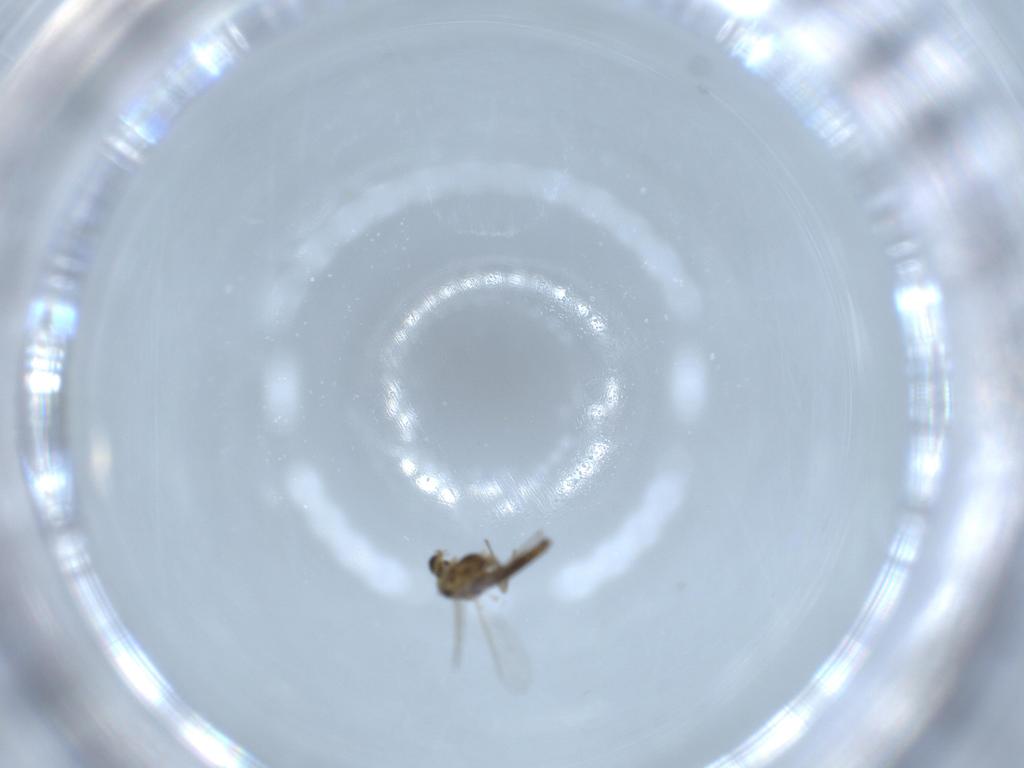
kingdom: Animalia
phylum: Arthropoda
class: Insecta
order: Diptera
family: Chironomidae
